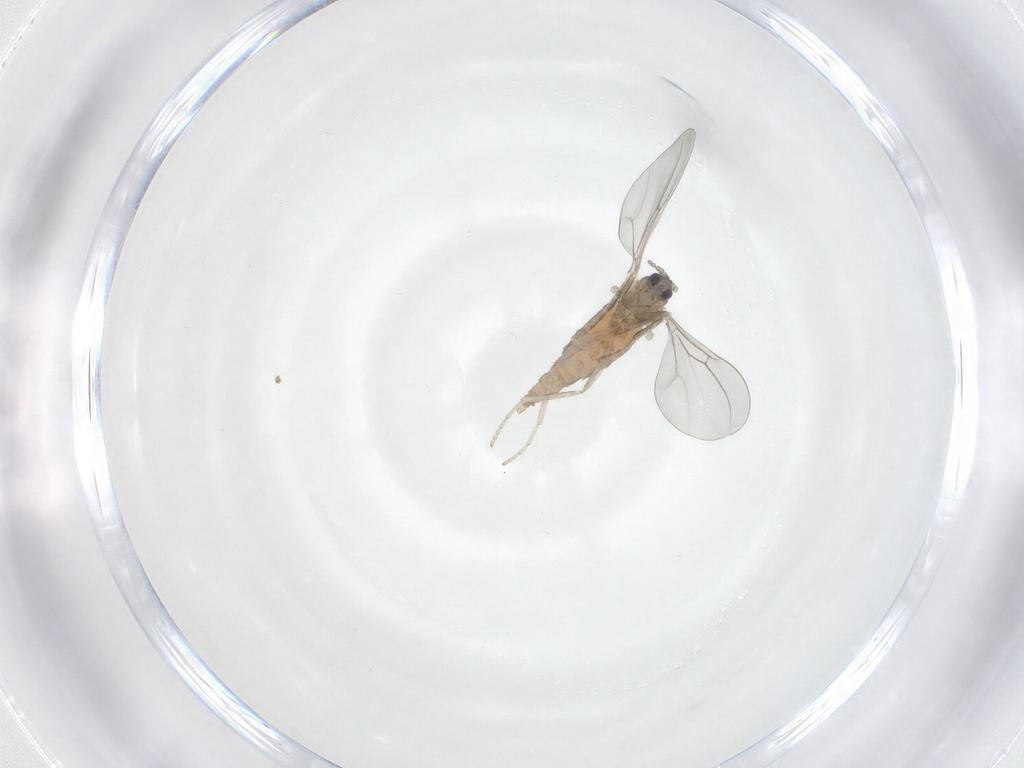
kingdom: Animalia
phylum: Arthropoda
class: Insecta
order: Diptera
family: Cecidomyiidae
